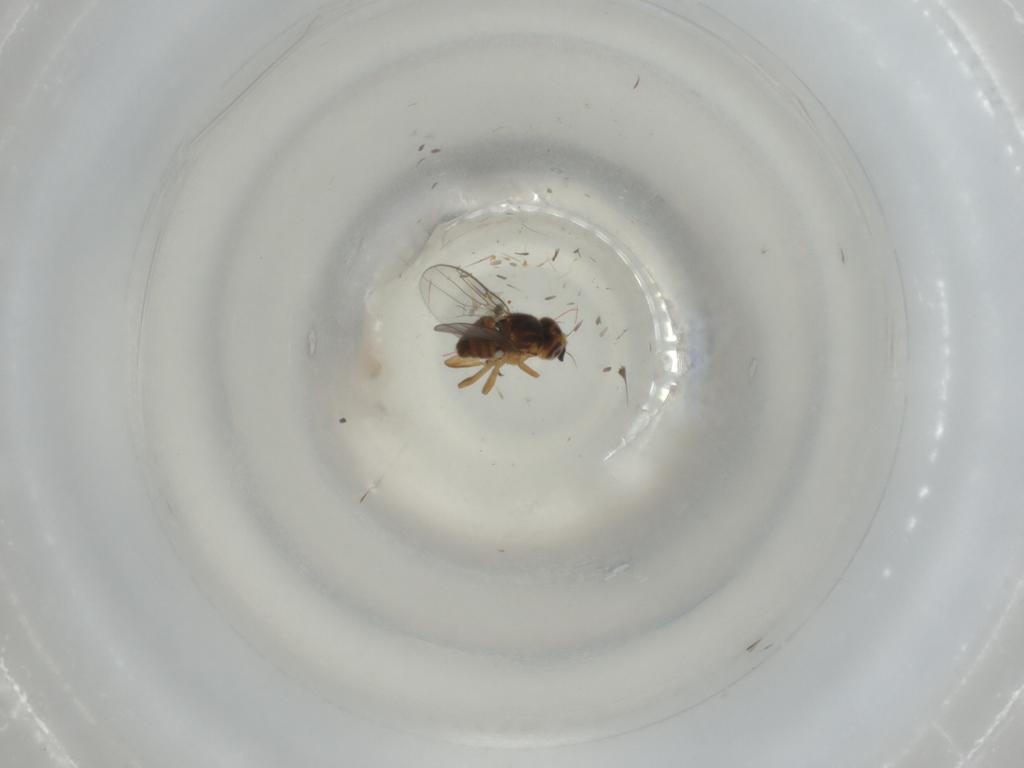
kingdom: Animalia
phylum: Arthropoda
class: Insecta
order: Diptera
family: Chloropidae
